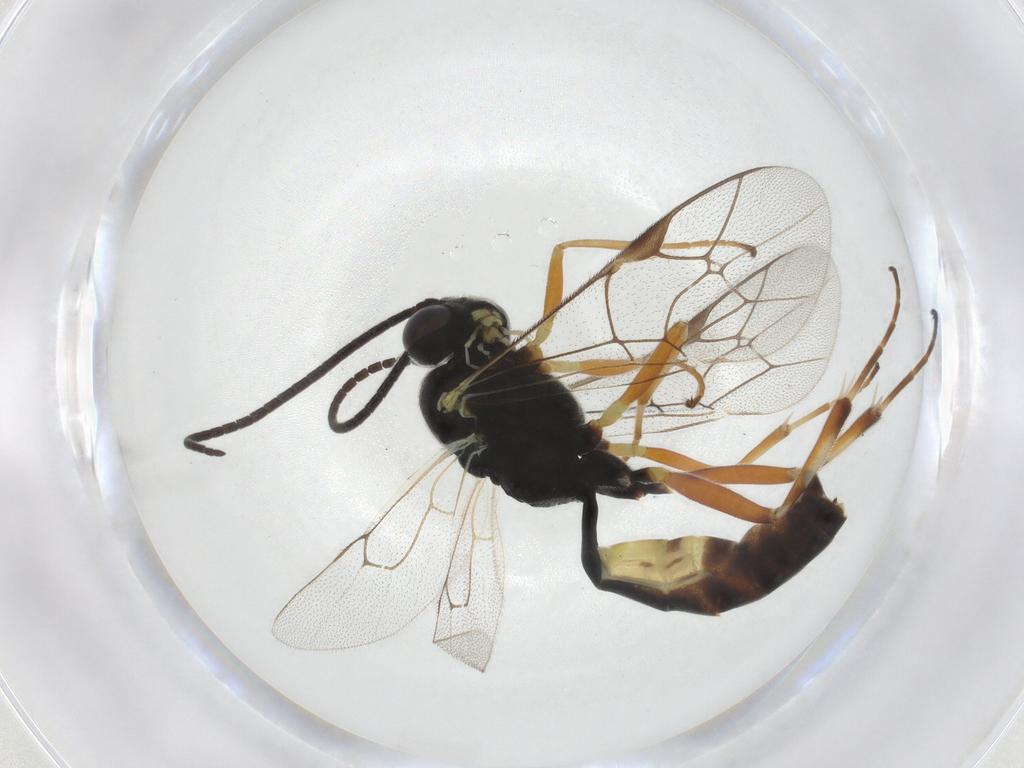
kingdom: Animalia
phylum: Arthropoda
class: Insecta
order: Hymenoptera
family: Ichneumonidae
